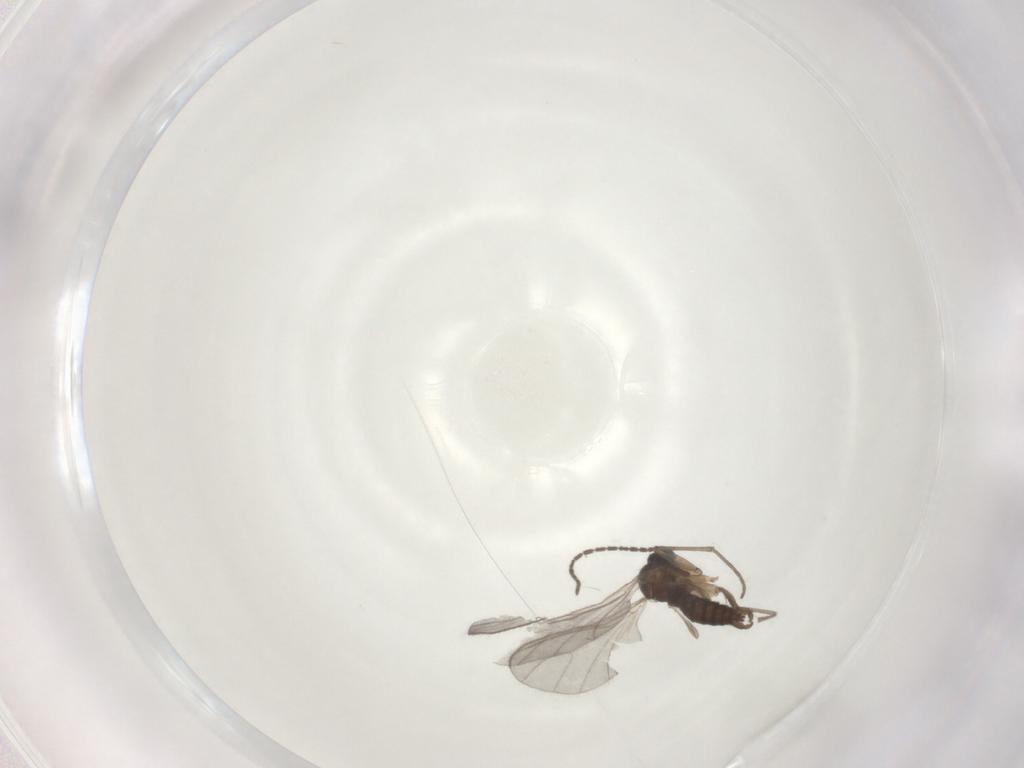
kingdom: Animalia
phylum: Arthropoda
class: Insecta
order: Diptera
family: Sciaridae
